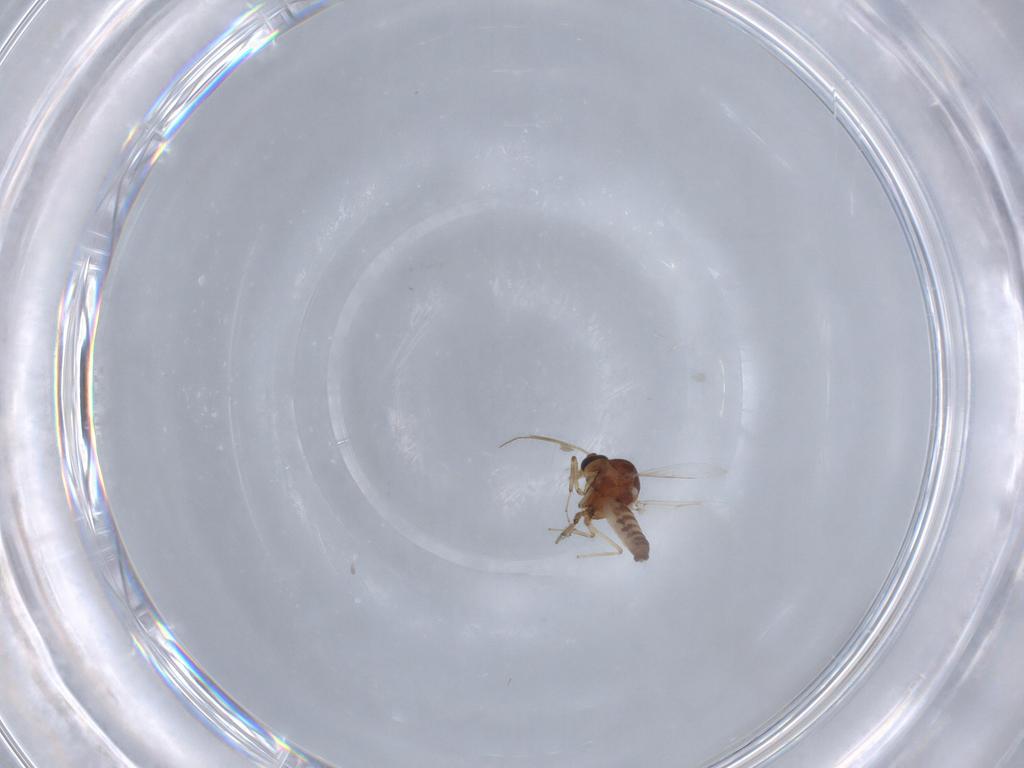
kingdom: Animalia
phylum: Arthropoda
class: Insecta
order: Diptera
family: Chironomidae
